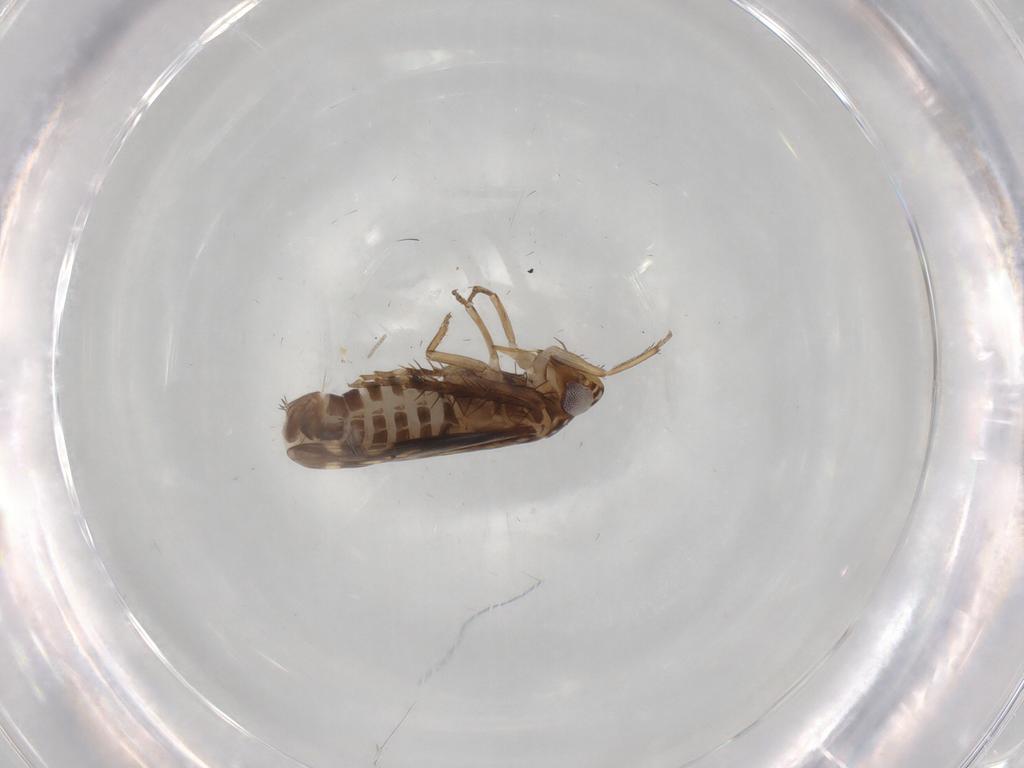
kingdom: Animalia
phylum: Arthropoda
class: Insecta
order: Hemiptera
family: Cicadellidae
